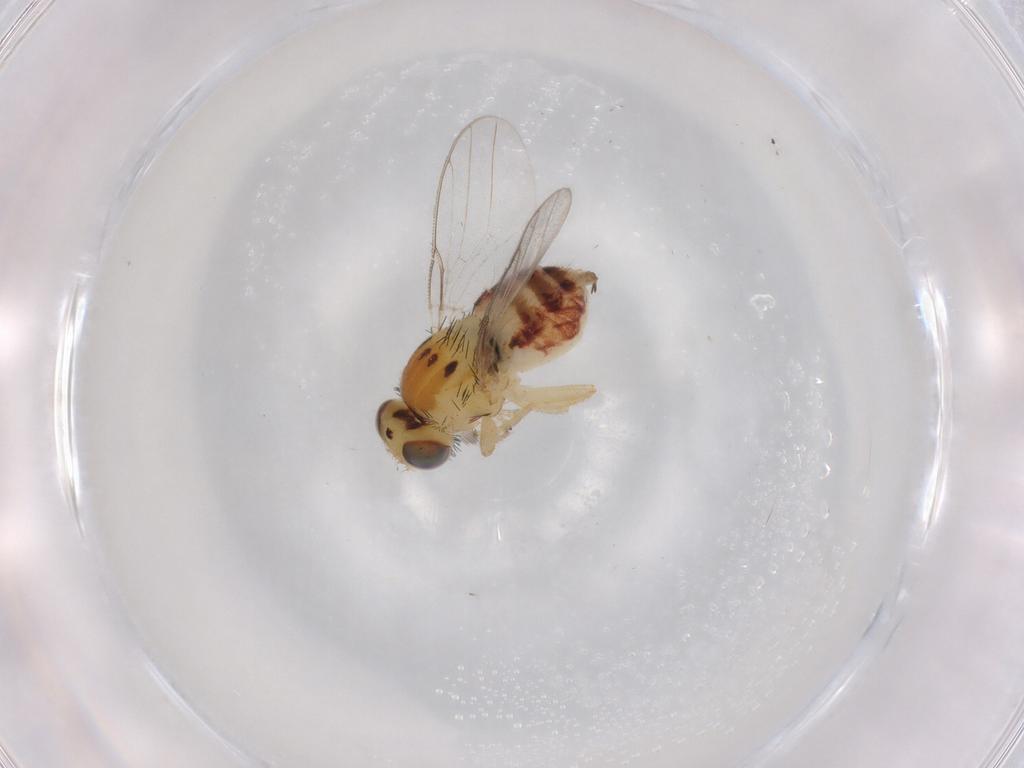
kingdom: Animalia
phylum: Arthropoda
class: Insecta
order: Diptera
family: Chloropidae
